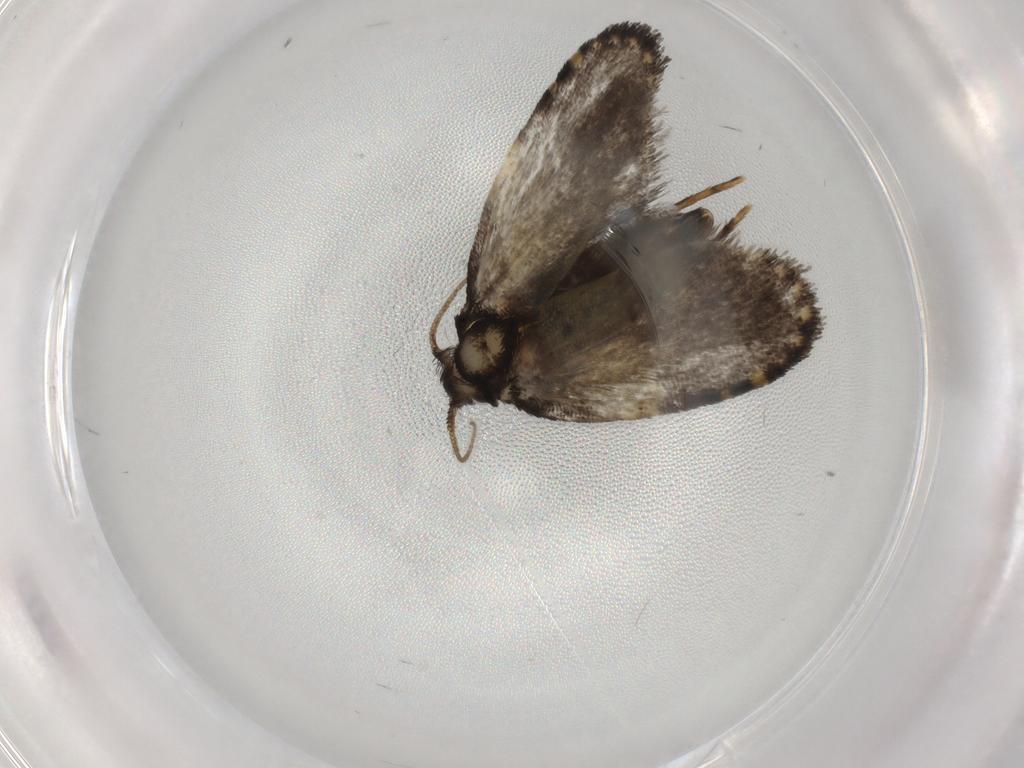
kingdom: Animalia
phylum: Arthropoda
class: Insecta
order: Lepidoptera
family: Psychidae
